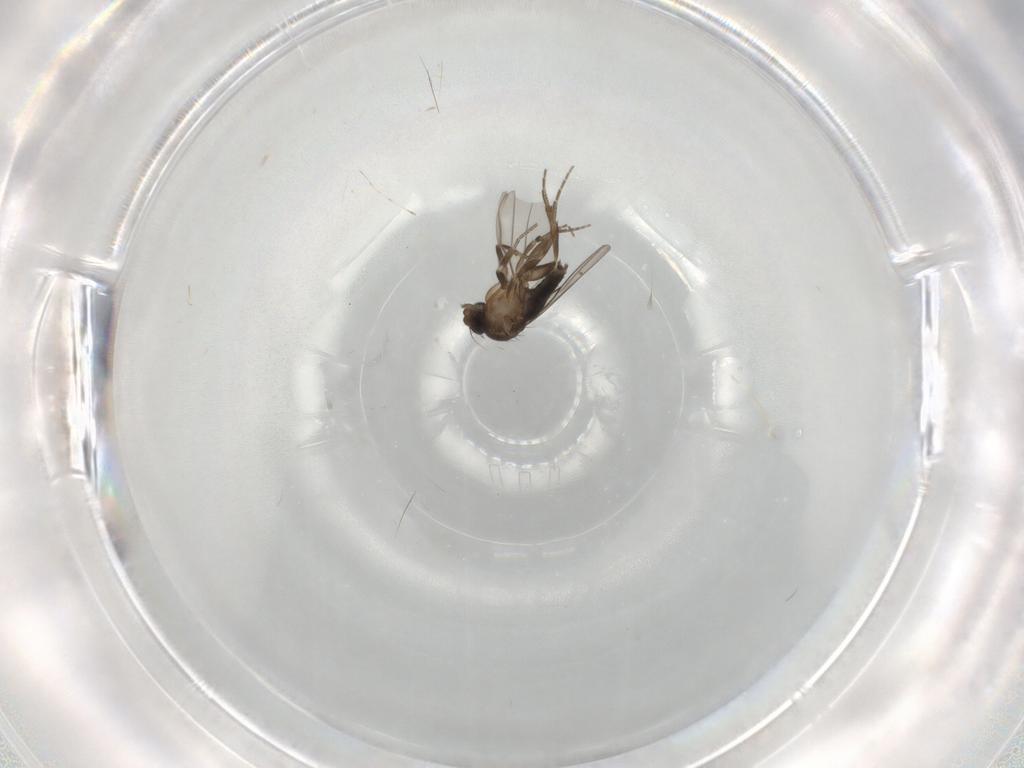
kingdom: Animalia
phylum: Arthropoda
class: Insecta
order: Diptera
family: Cecidomyiidae
